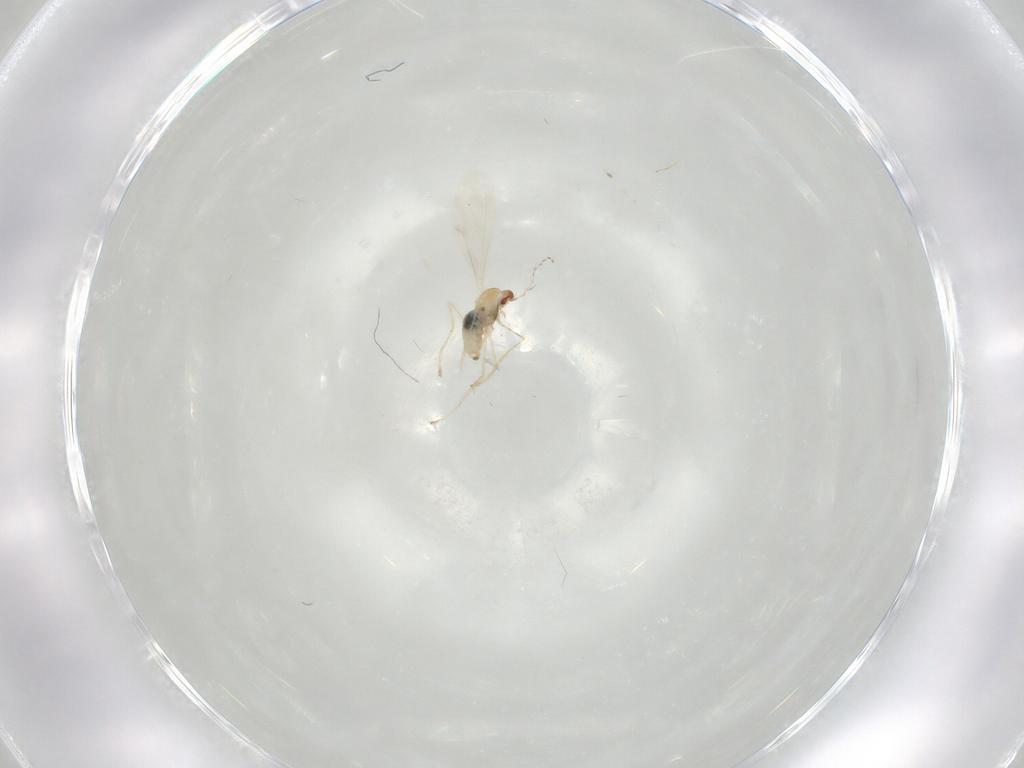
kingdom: Animalia
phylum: Arthropoda
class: Insecta
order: Diptera
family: Cecidomyiidae
